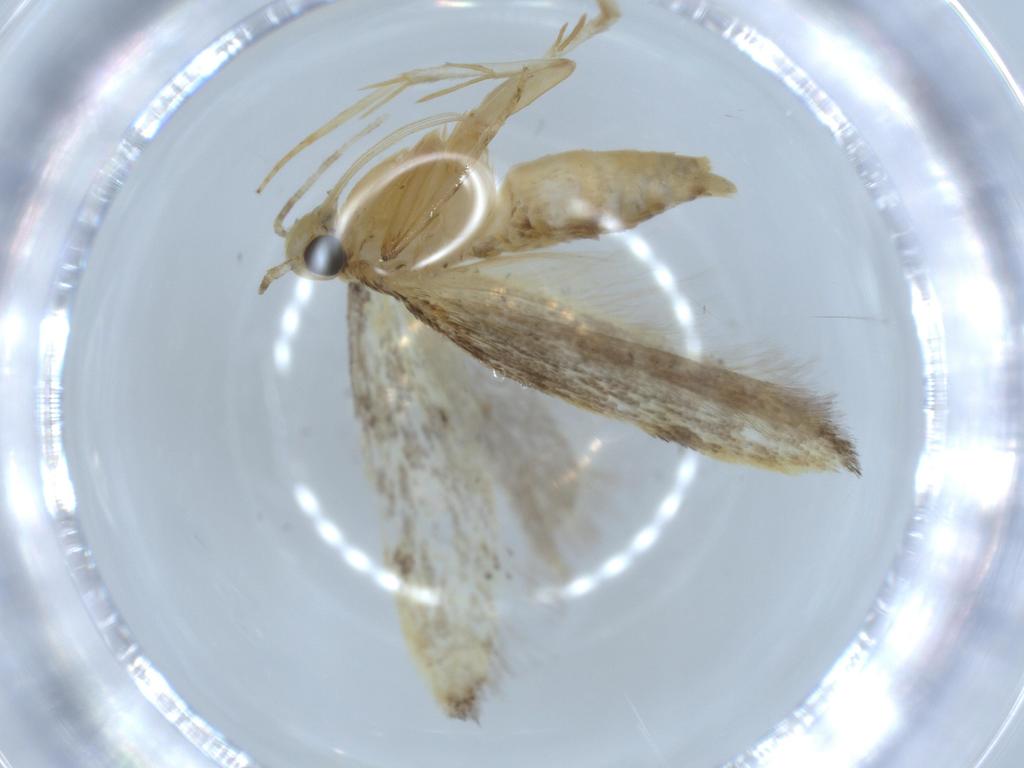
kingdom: Animalia
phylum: Arthropoda
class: Insecta
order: Lepidoptera
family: Autostichidae
